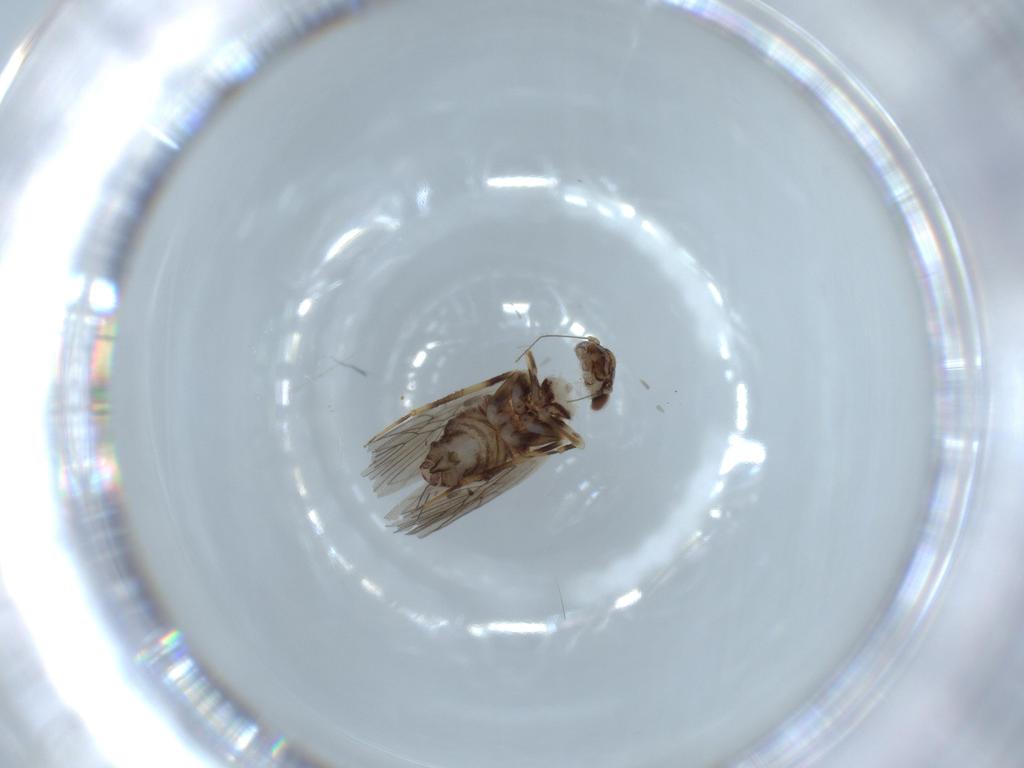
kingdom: Animalia
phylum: Arthropoda
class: Insecta
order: Psocodea
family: Lepidopsocidae
